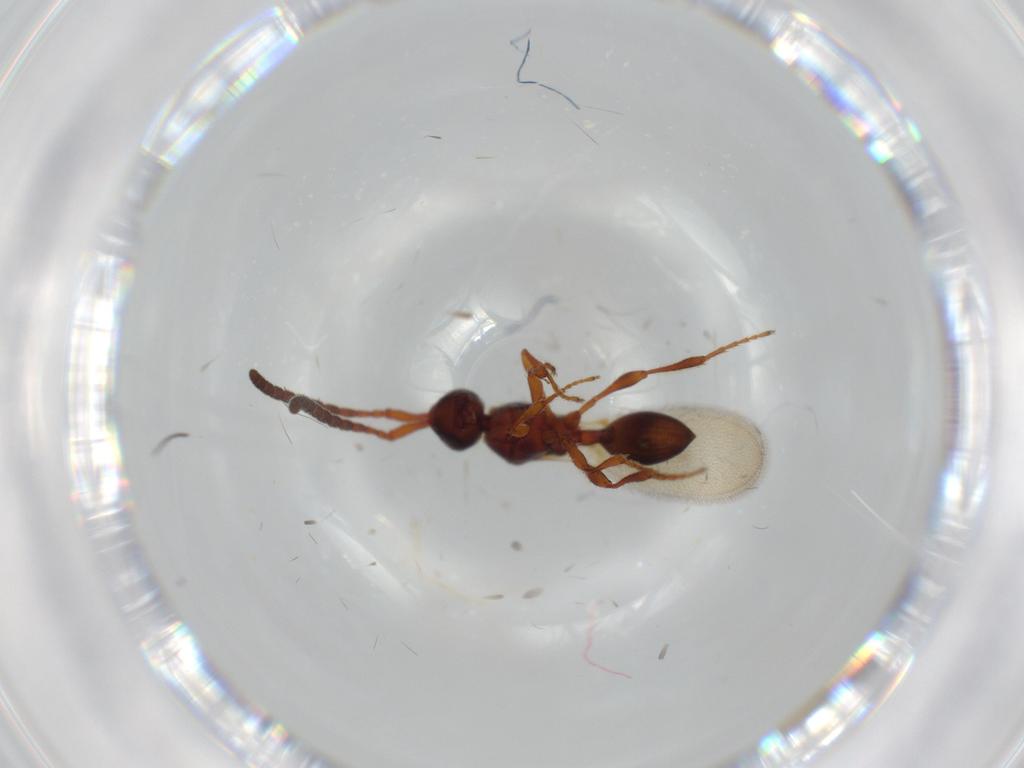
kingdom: Animalia
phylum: Arthropoda
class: Insecta
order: Hymenoptera
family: Diapriidae
